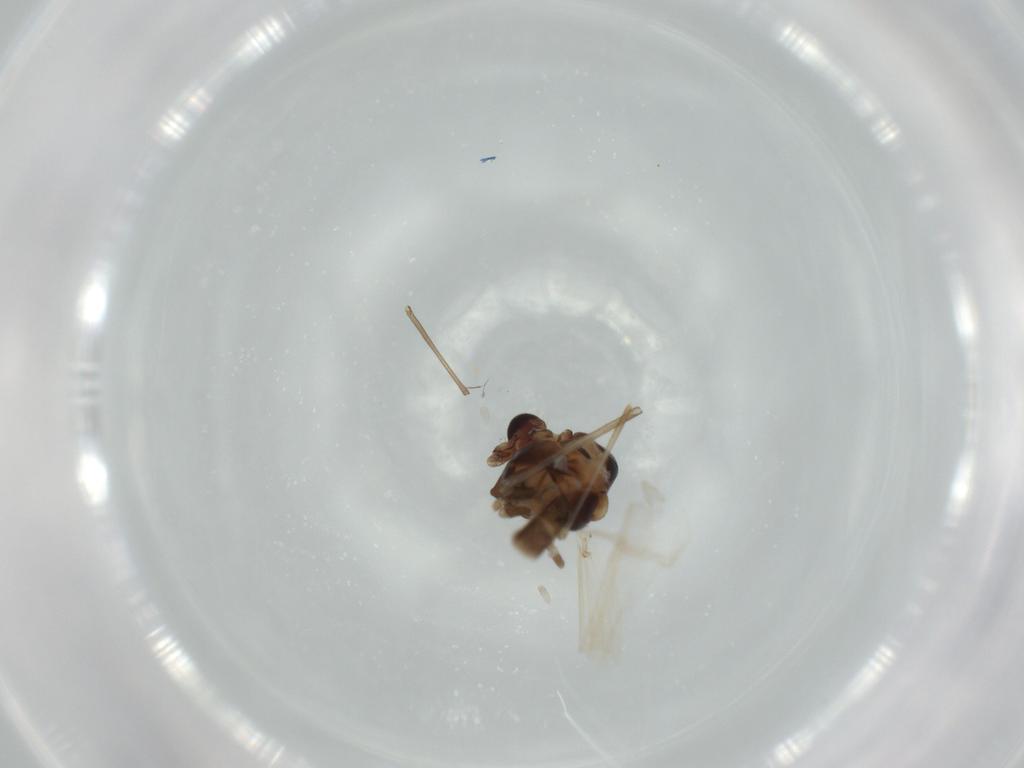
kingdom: Animalia
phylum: Arthropoda
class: Insecta
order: Diptera
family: Chironomidae
